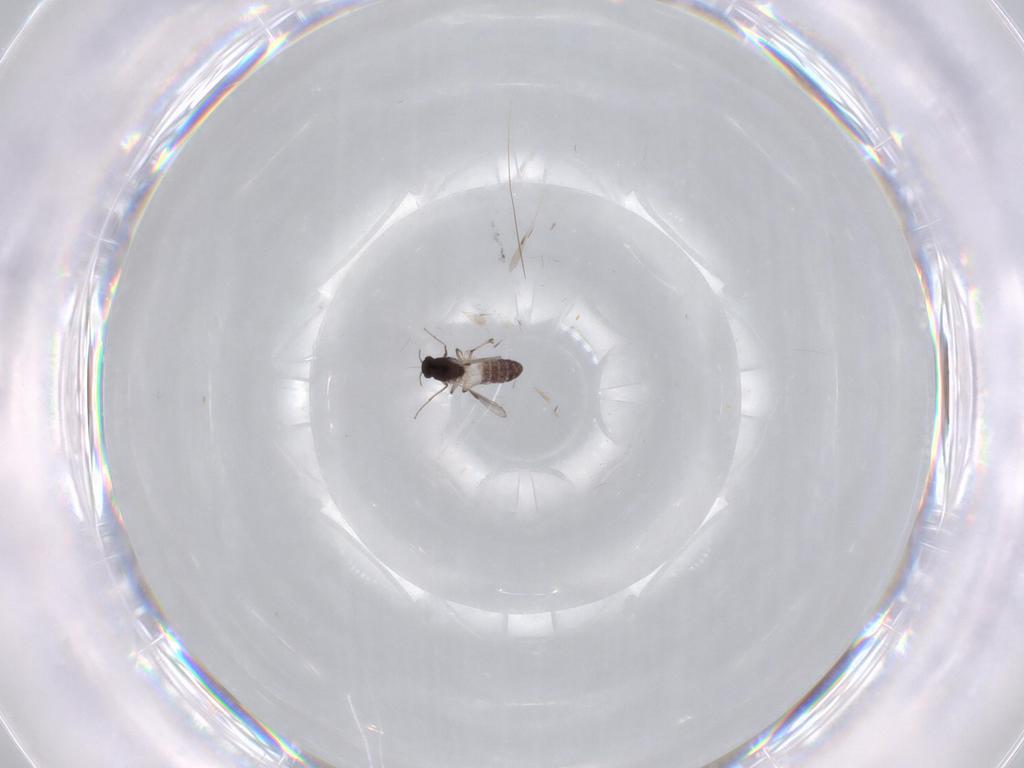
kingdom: Animalia
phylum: Arthropoda
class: Insecta
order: Diptera
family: Chironomidae
